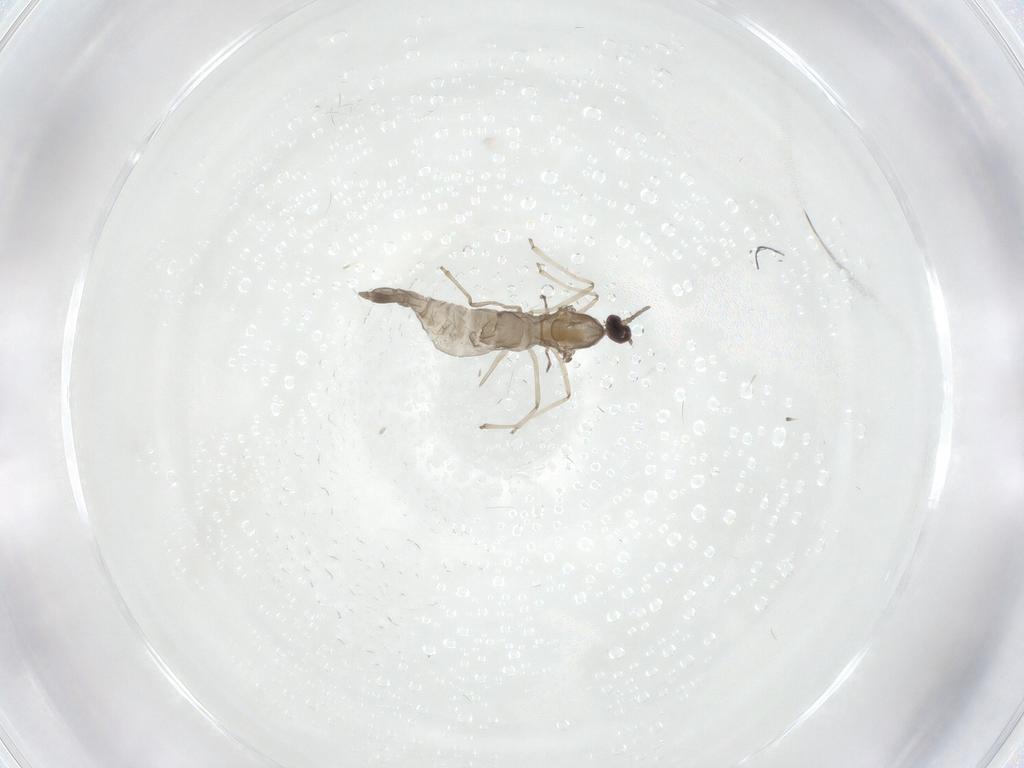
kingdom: Animalia
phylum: Arthropoda
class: Insecta
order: Diptera
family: Cecidomyiidae
